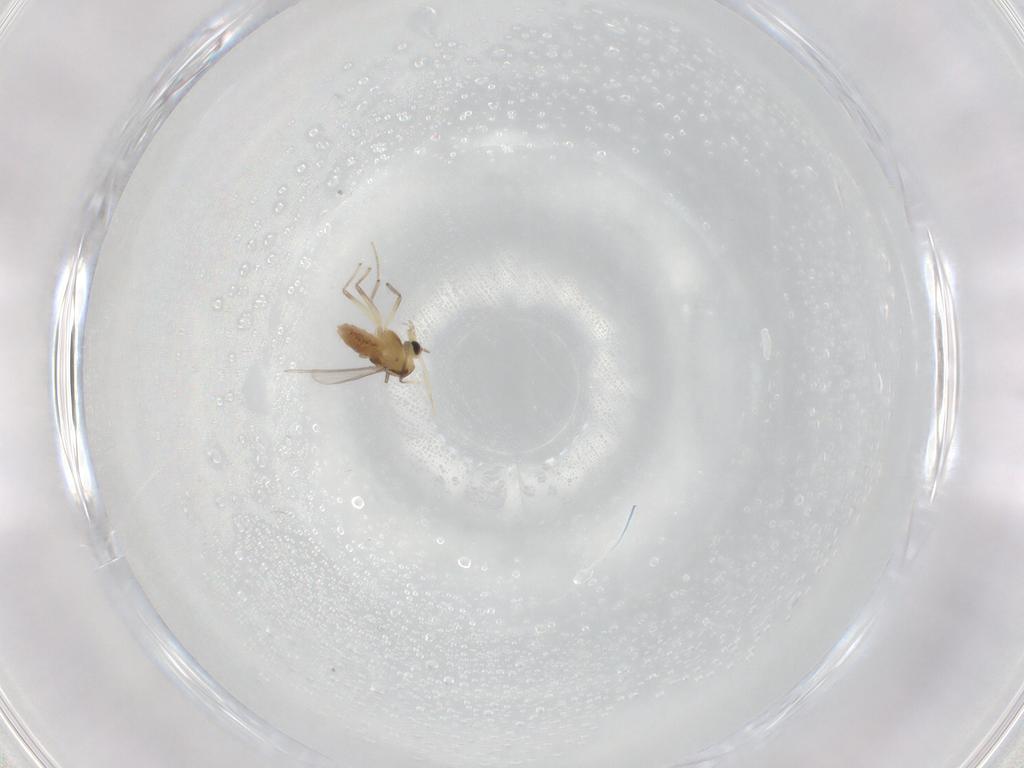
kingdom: Animalia
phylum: Arthropoda
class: Insecta
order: Diptera
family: Chironomidae
